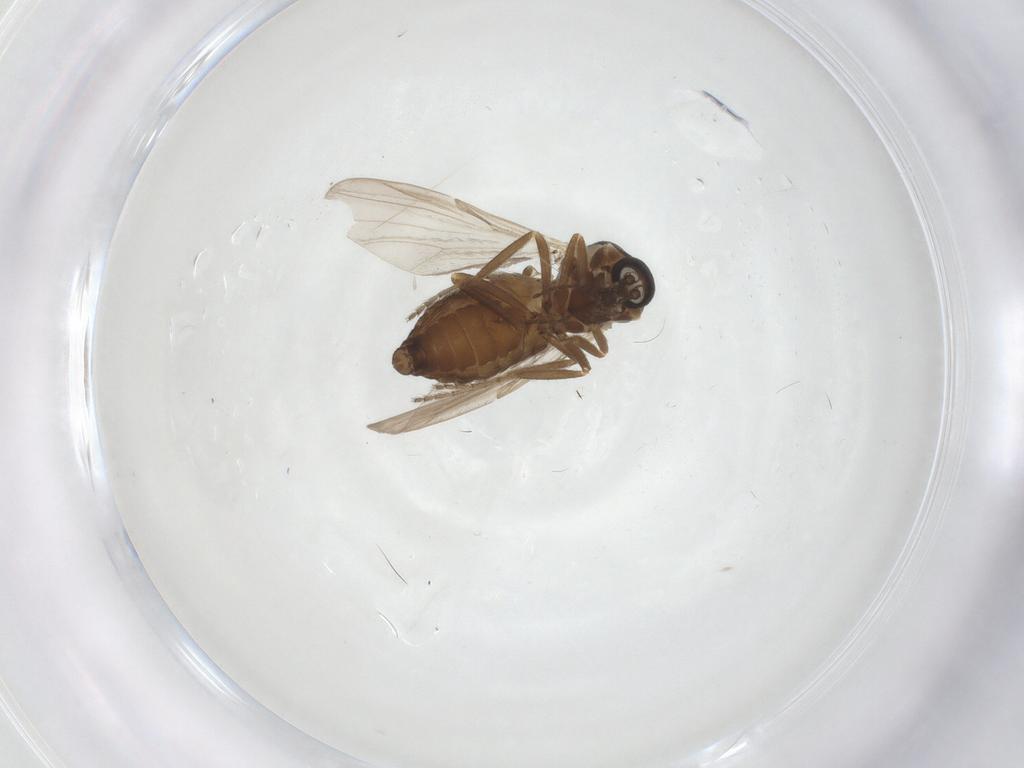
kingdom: Animalia
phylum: Arthropoda
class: Insecta
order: Diptera
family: Ceratopogonidae
